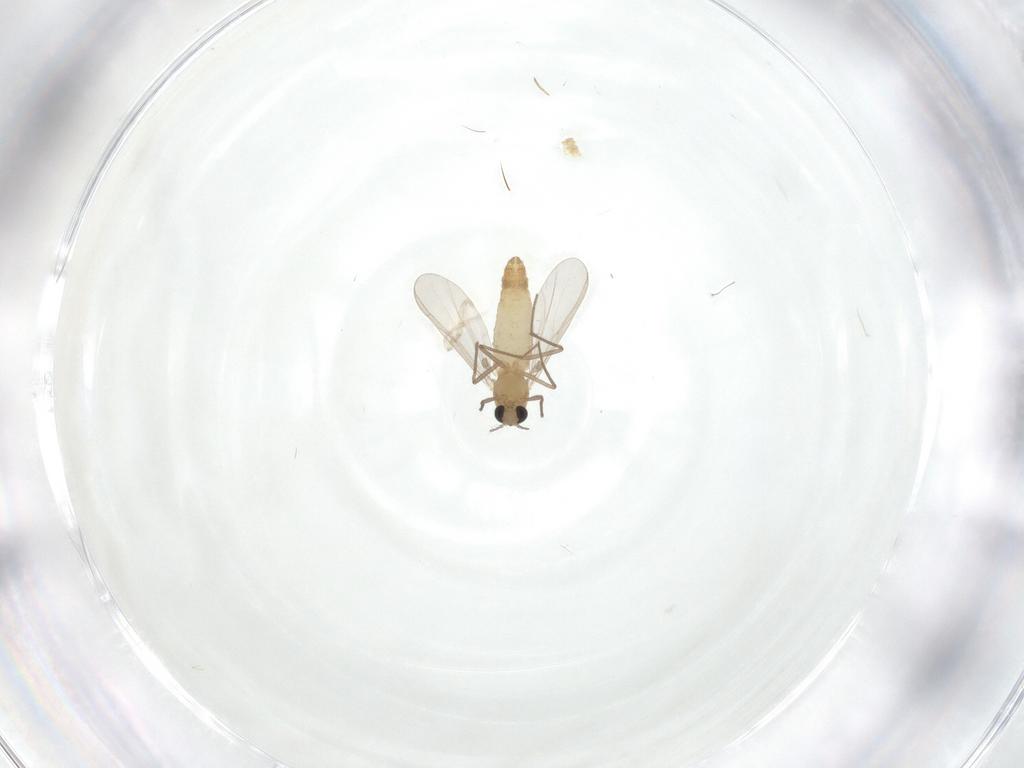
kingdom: Animalia
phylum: Arthropoda
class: Insecta
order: Diptera
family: Chironomidae
